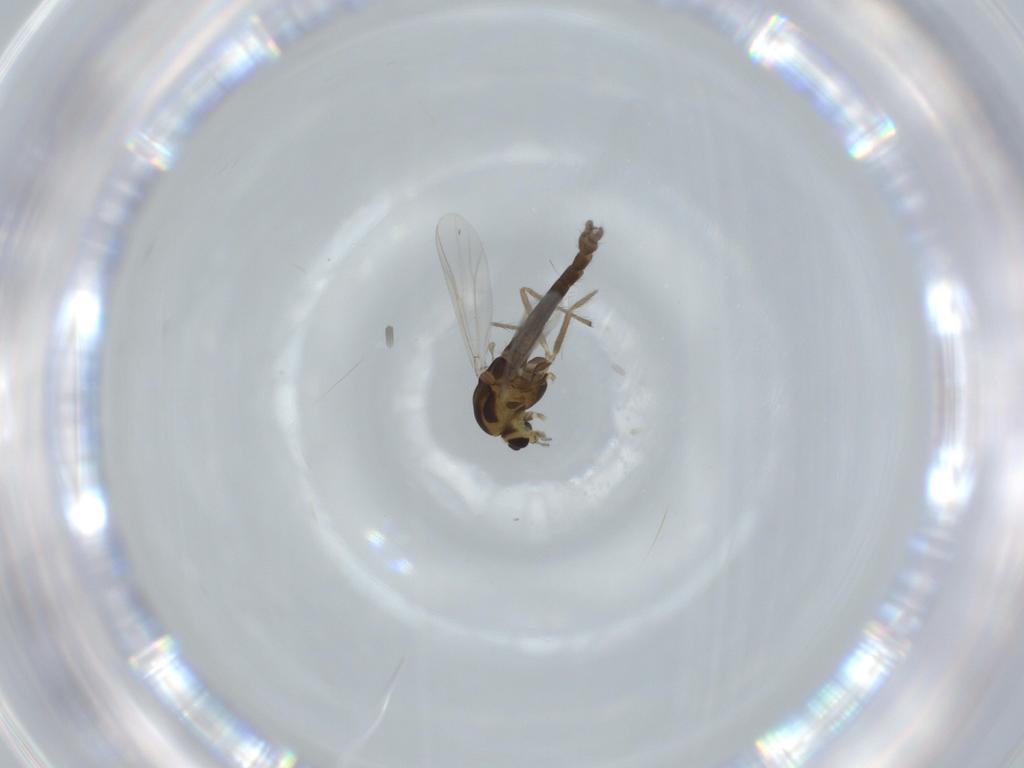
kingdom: Animalia
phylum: Arthropoda
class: Insecta
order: Diptera
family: Chironomidae
